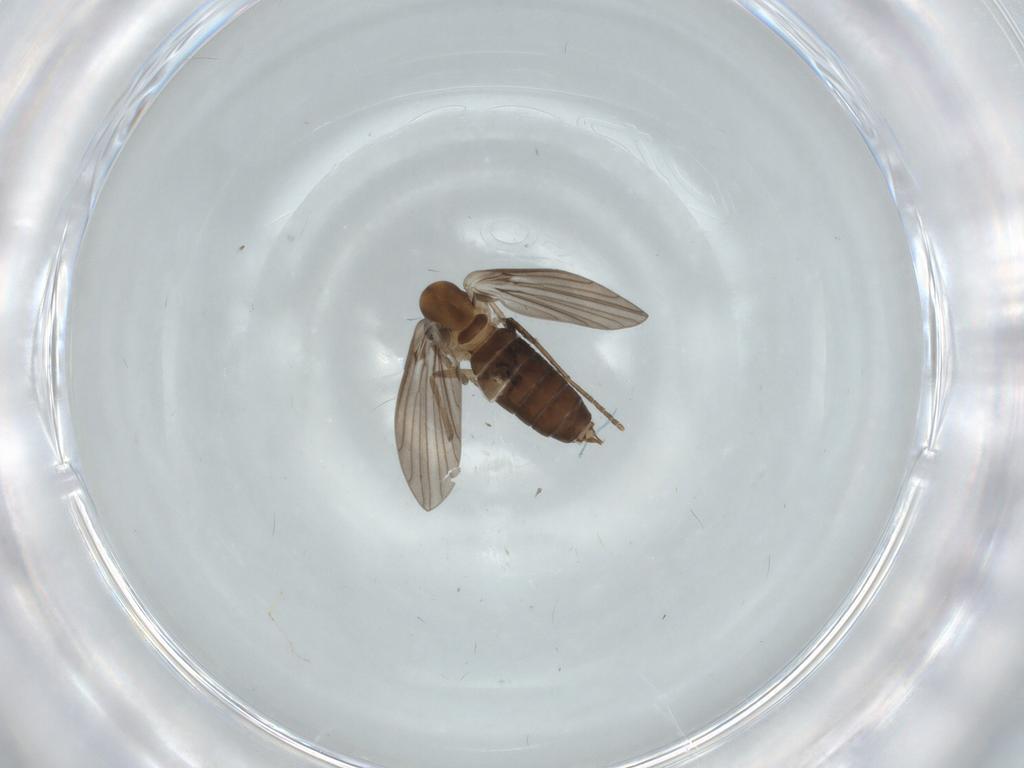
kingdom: Animalia
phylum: Arthropoda
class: Insecta
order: Diptera
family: Psychodidae
